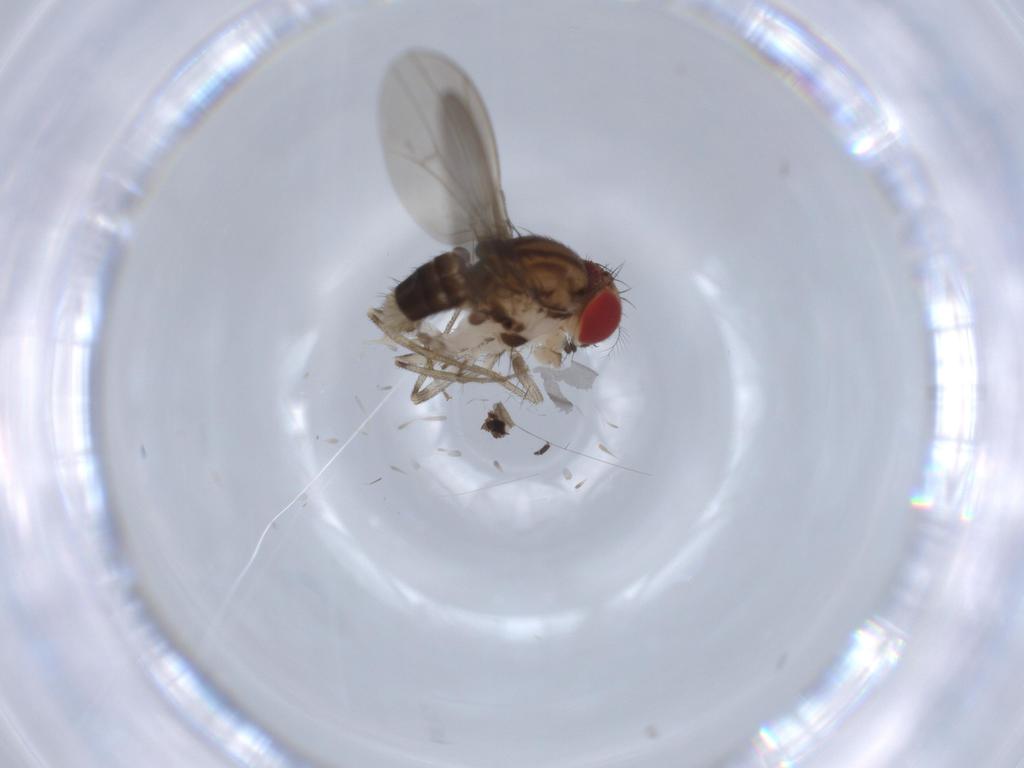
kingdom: Animalia
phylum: Arthropoda
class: Insecta
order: Diptera
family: Drosophilidae
